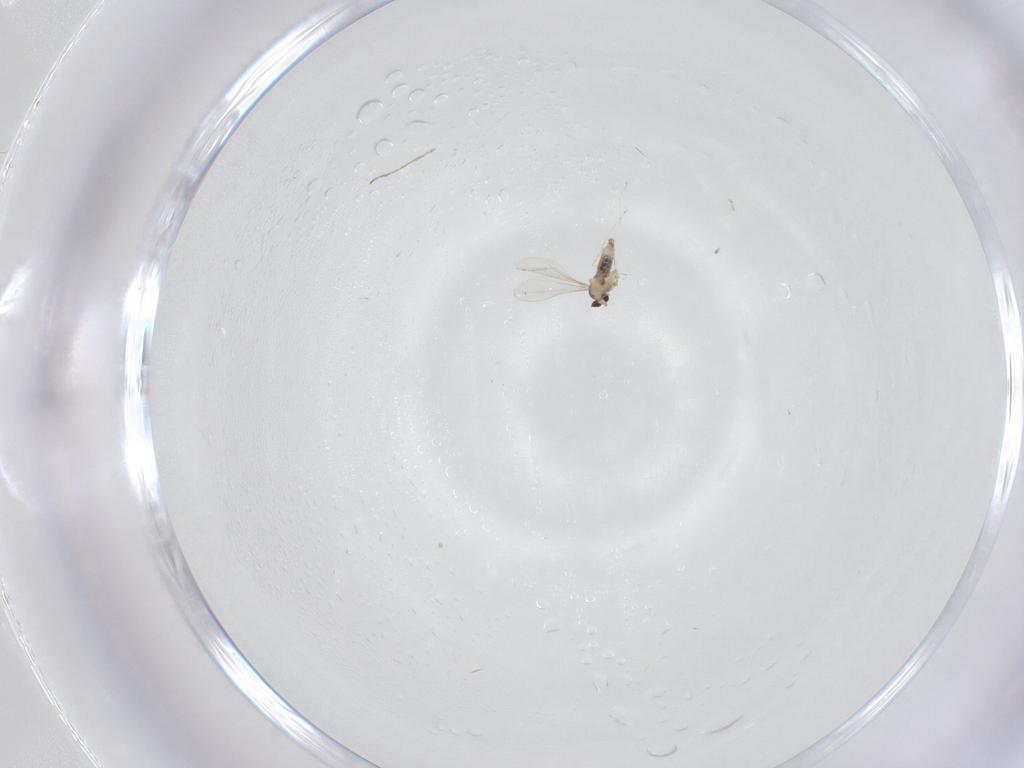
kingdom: Animalia
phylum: Arthropoda
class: Insecta
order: Diptera
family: Cecidomyiidae
